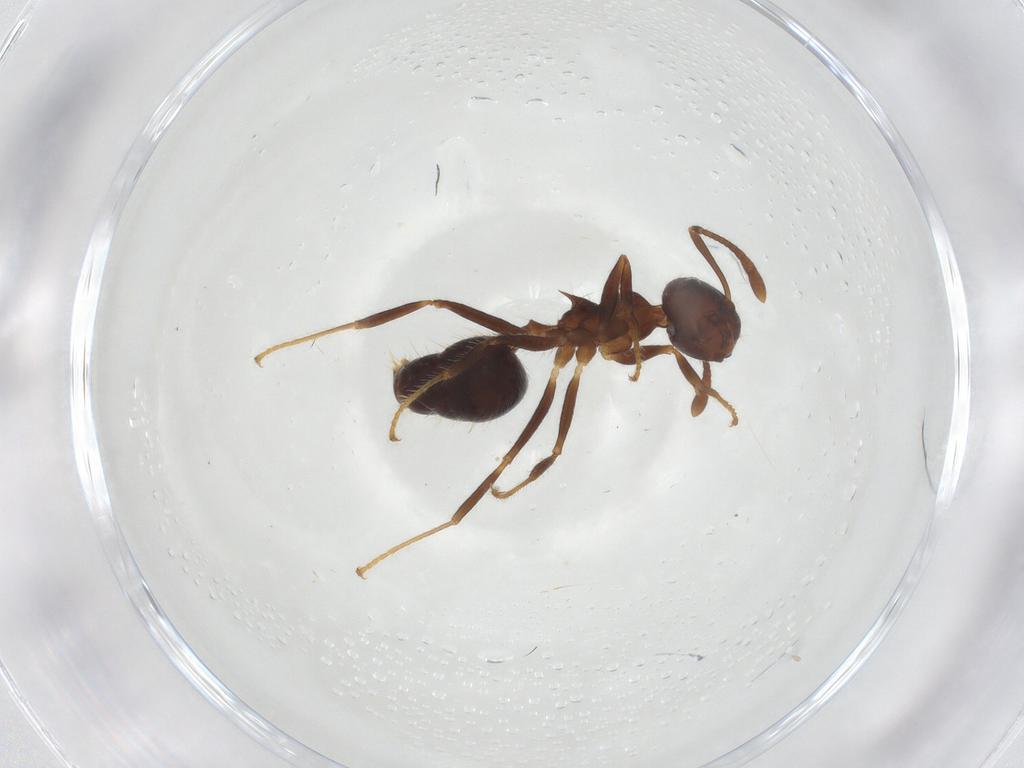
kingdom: Animalia
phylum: Arthropoda
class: Insecta
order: Hymenoptera
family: Formicidae
